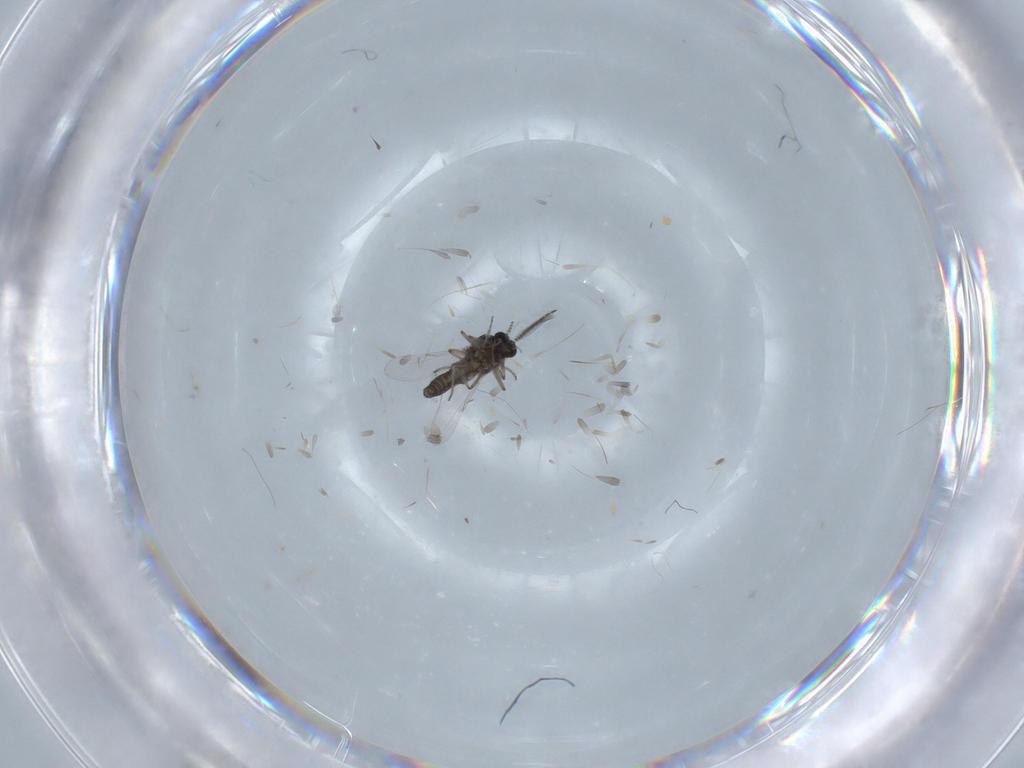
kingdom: Animalia
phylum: Arthropoda
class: Insecta
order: Diptera
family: Ceratopogonidae
